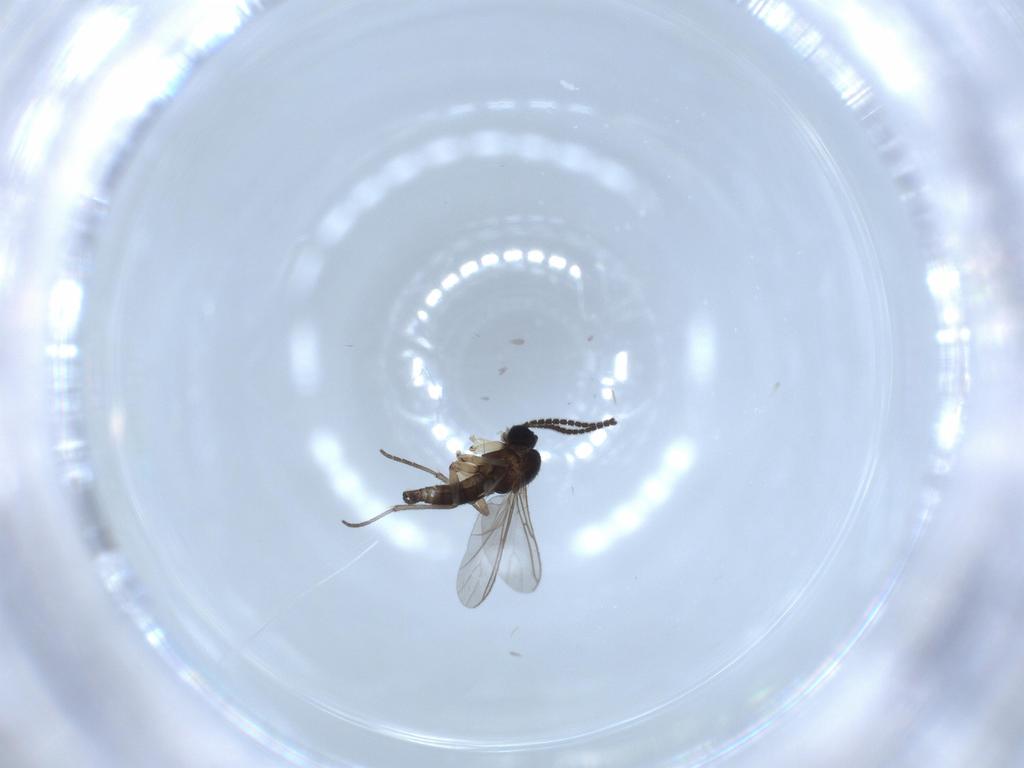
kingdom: Animalia
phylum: Arthropoda
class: Insecta
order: Diptera
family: Sciaridae
